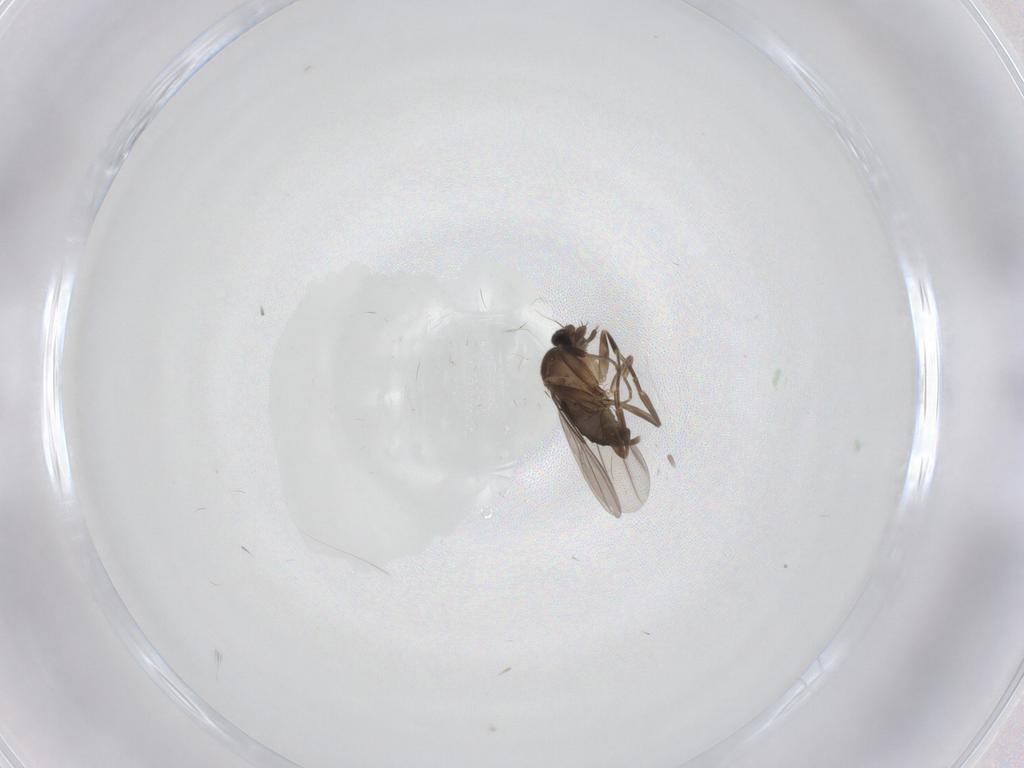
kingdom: Animalia
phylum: Arthropoda
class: Insecta
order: Diptera
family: Phoridae
